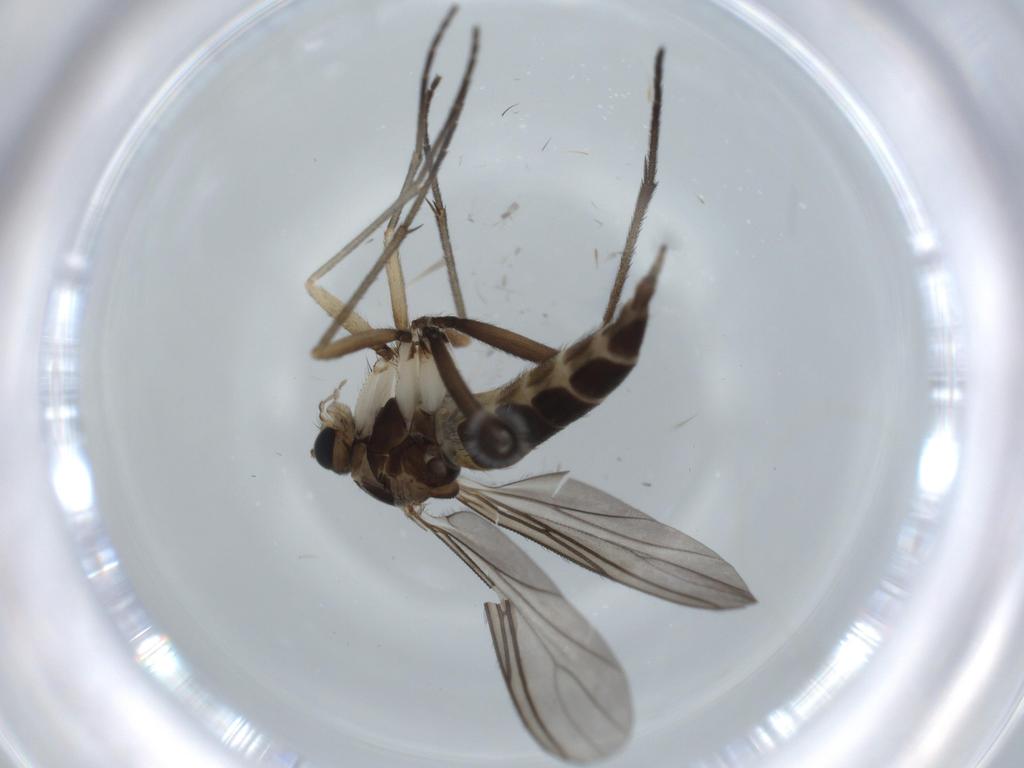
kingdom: Animalia
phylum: Arthropoda
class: Insecta
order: Diptera
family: Sciaridae
